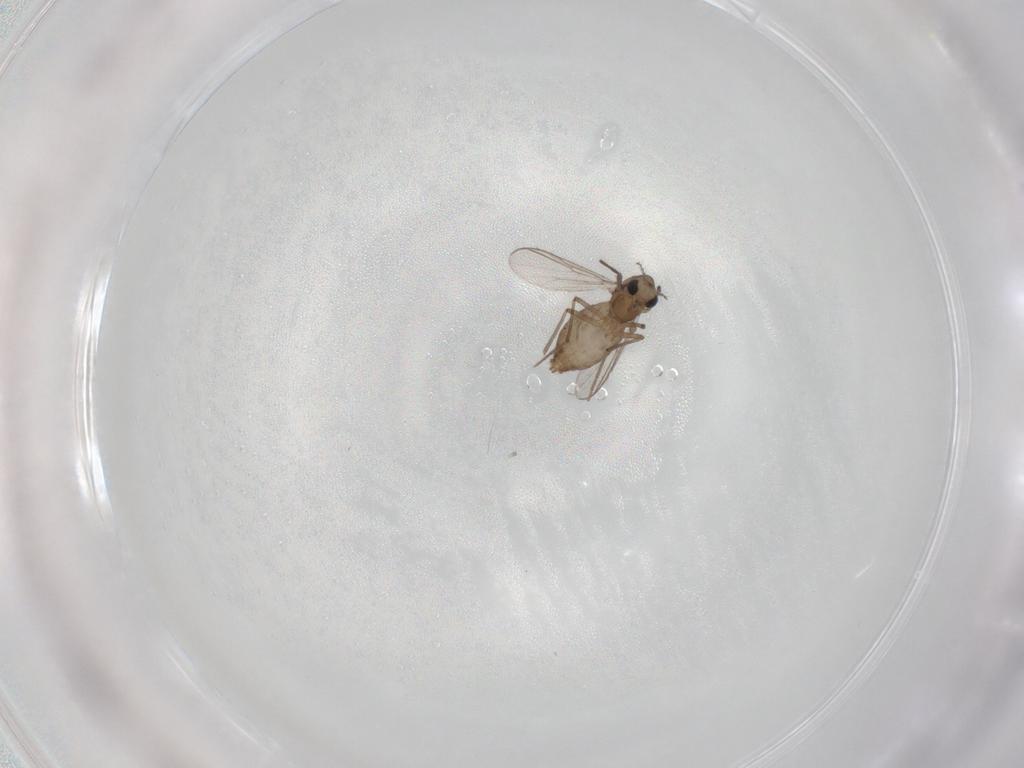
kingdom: Animalia
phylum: Arthropoda
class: Insecta
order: Diptera
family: Chironomidae
